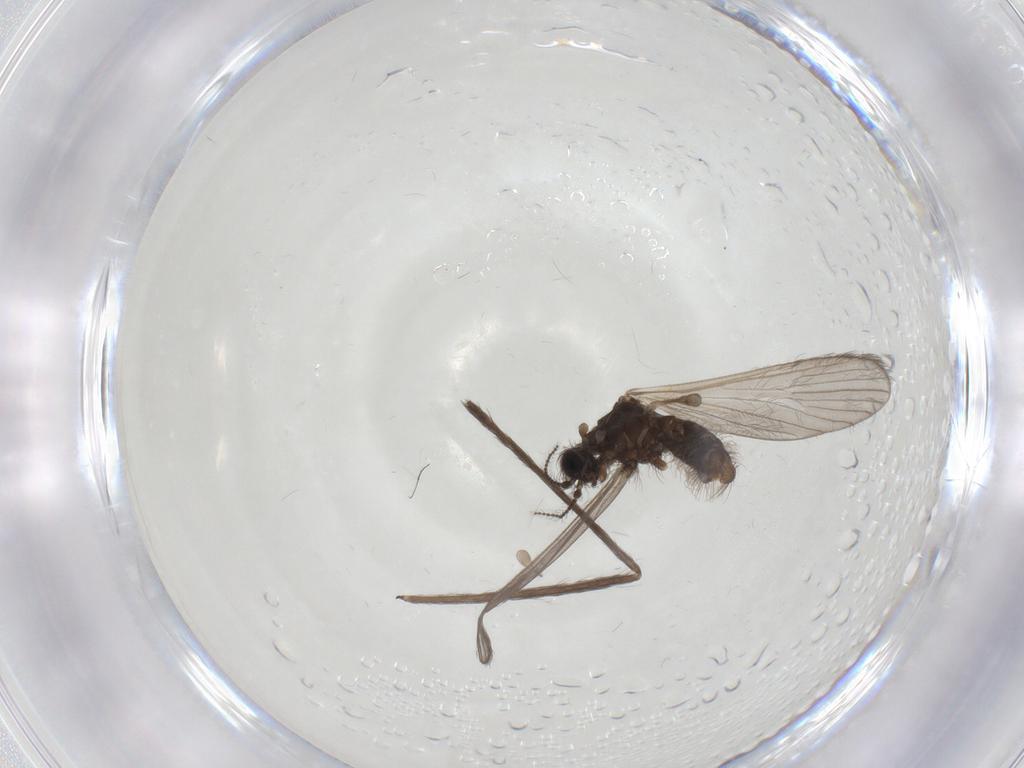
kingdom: Animalia
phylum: Arthropoda
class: Insecta
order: Diptera
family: Limoniidae
